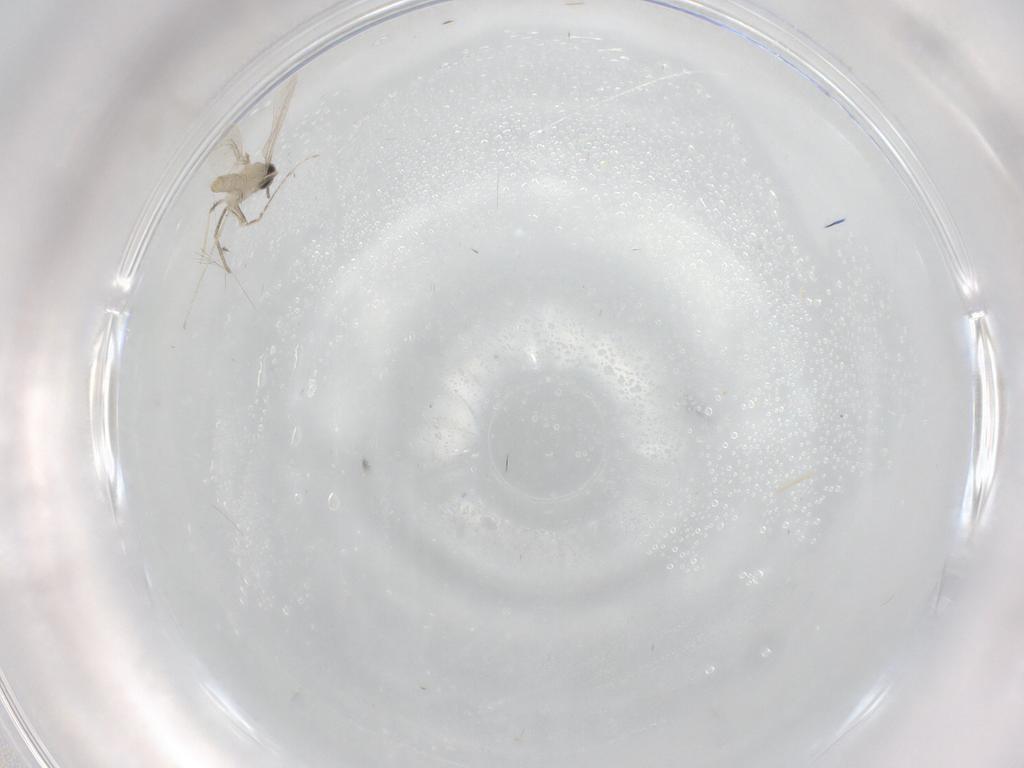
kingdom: Animalia
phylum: Arthropoda
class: Insecta
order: Diptera
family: Cecidomyiidae
